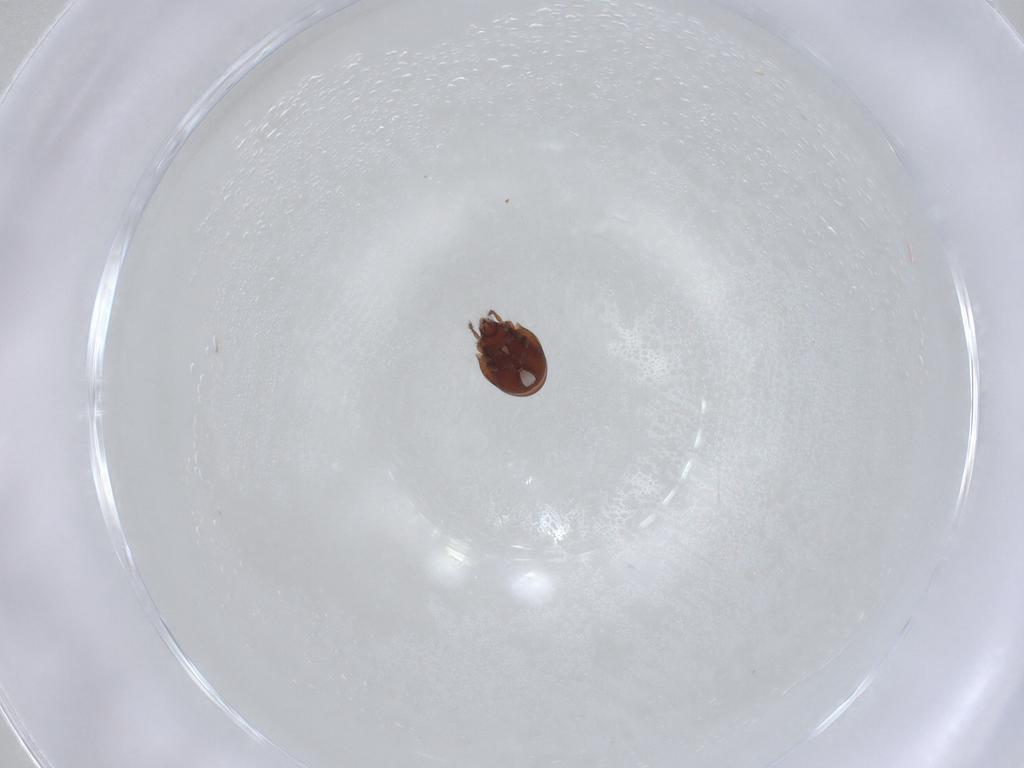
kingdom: Animalia
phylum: Arthropoda
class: Arachnida
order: Sarcoptiformes
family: Ceratozetidae
